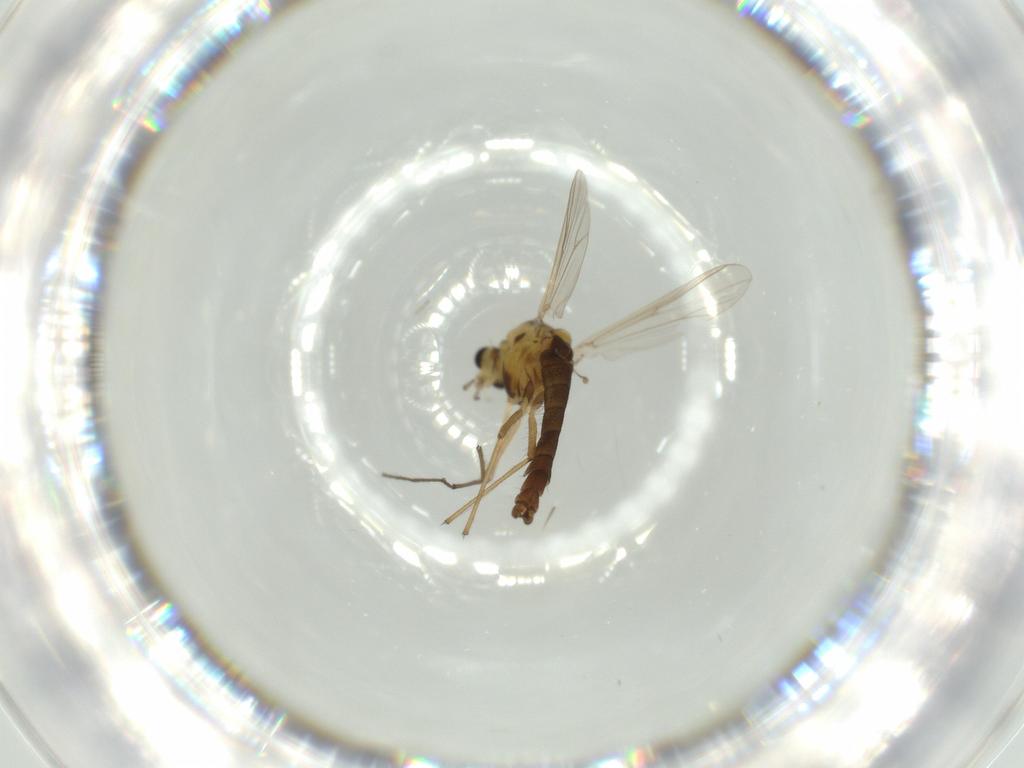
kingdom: Animalia
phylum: Arthropoda
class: Insecta
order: Diptera
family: Chironomidae
